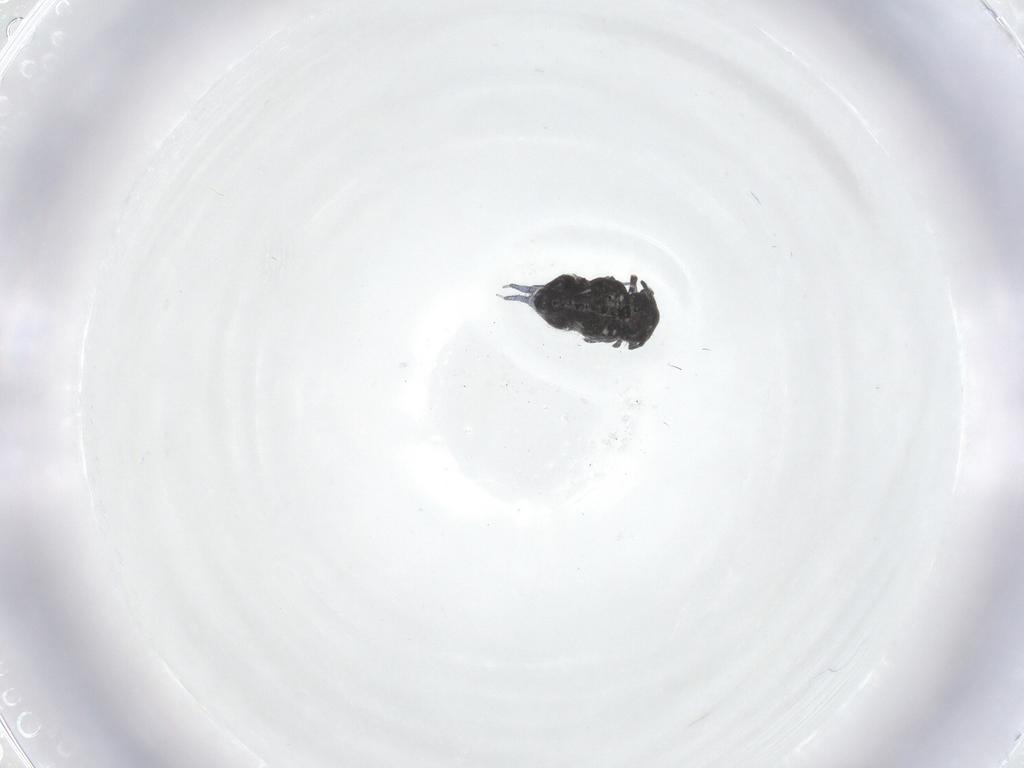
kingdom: Animalia
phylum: Arthropoda
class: Collembola
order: Symphypleona
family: Bourletiellidae
